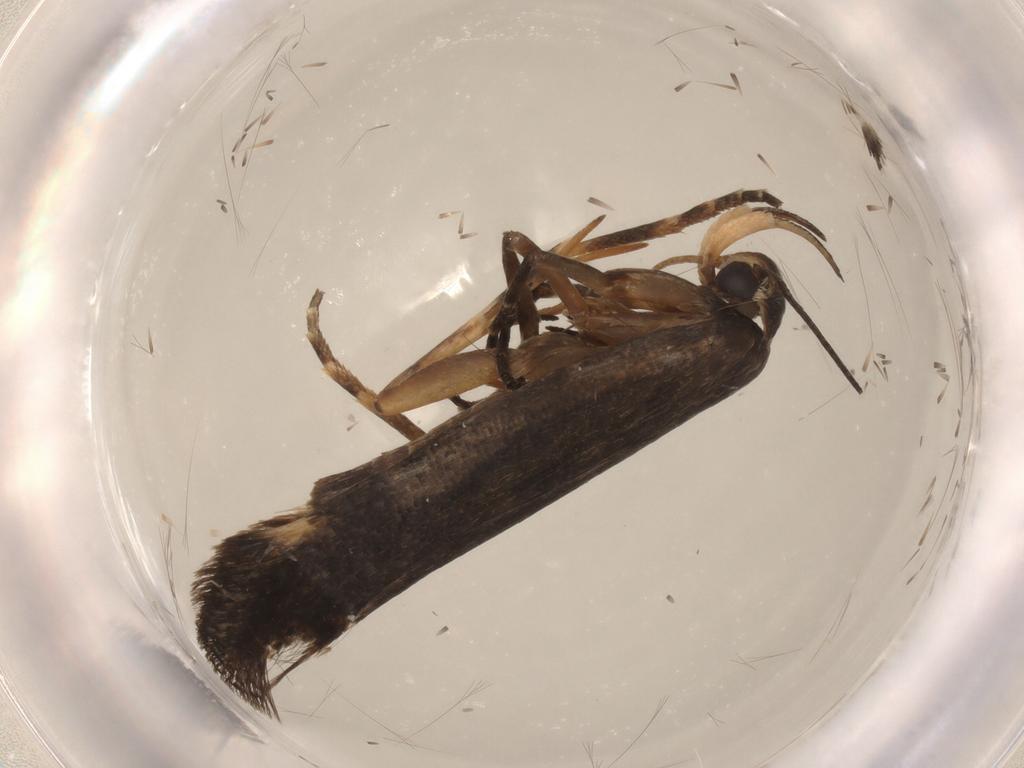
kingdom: Animalia
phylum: Arthropoda
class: Insecta
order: Lepidoptera
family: Gelechiidae
